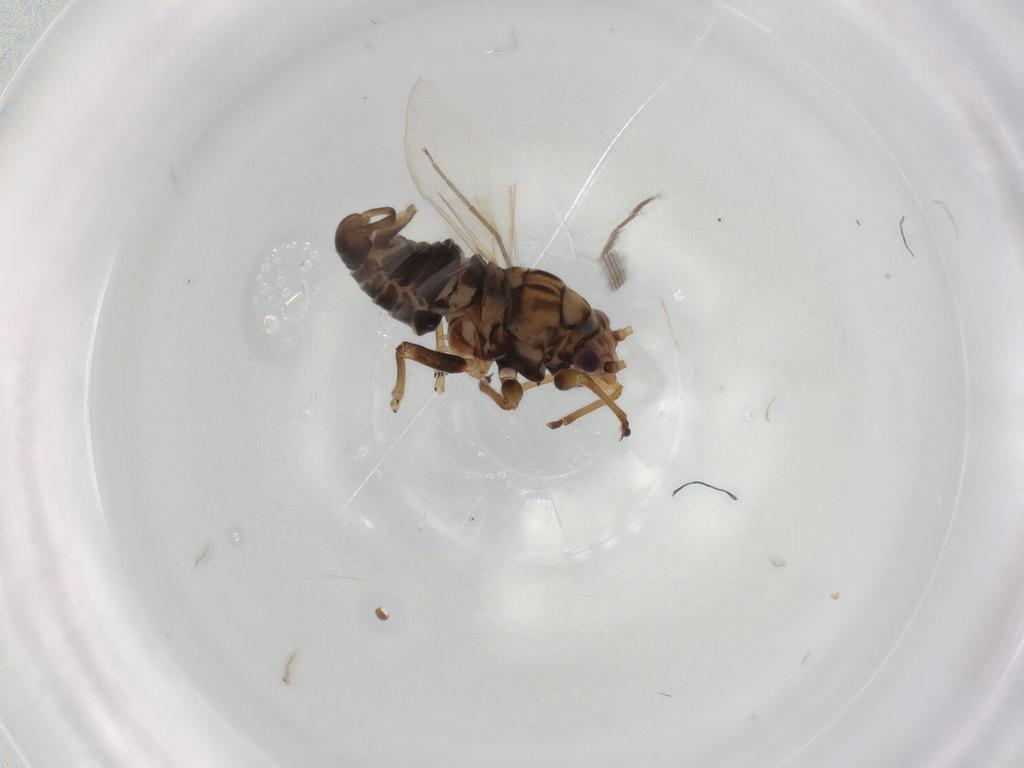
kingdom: Animalia
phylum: Arthropoda
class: Insecta
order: Hemiptera
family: Psyllidae
